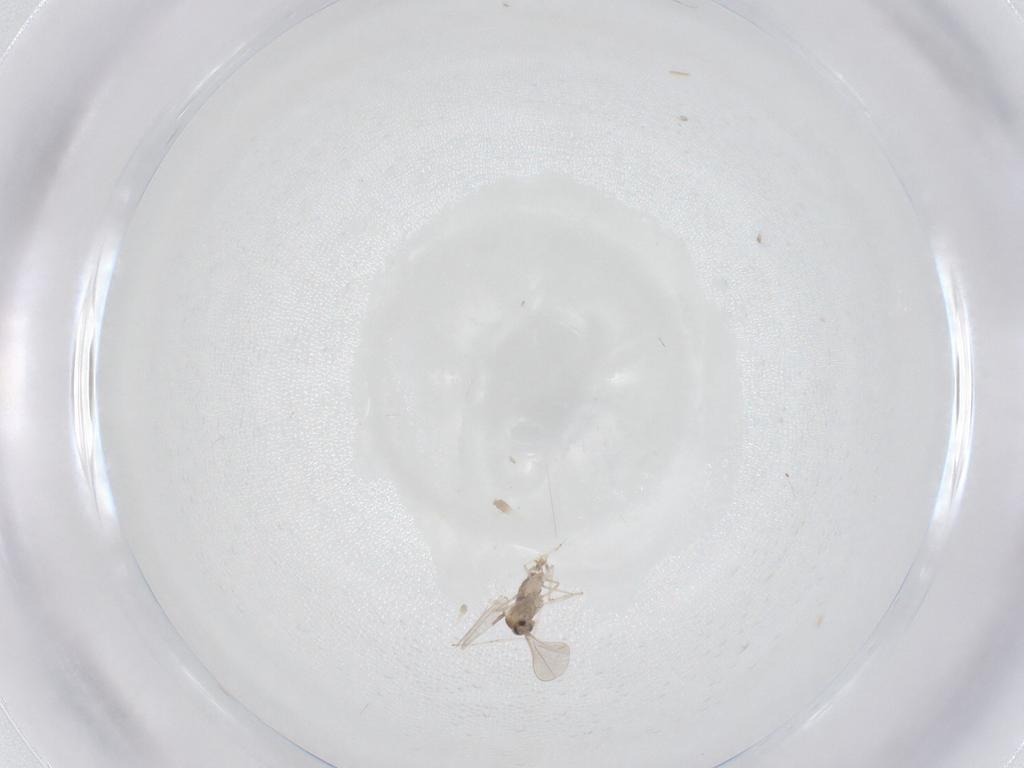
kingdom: Animalia
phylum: Arthropoda
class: Insecta
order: Diptera
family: Cecidomyiidae
